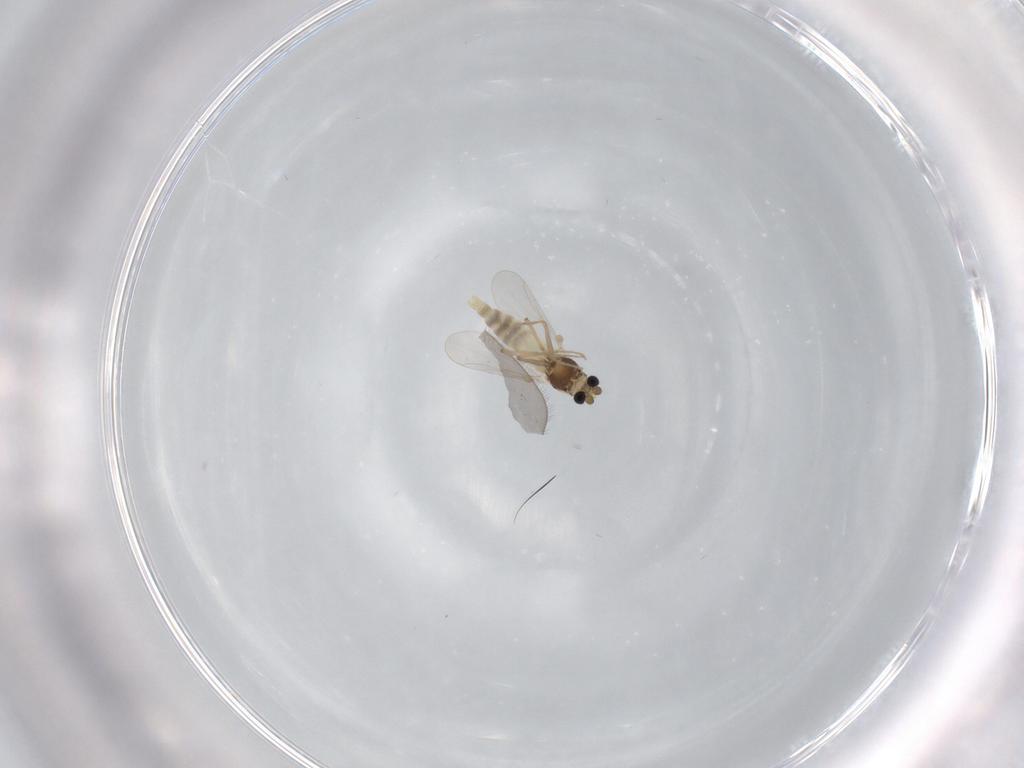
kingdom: Animalia
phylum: Arthropoda
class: Insecta
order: Diptera
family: Chironomidae
